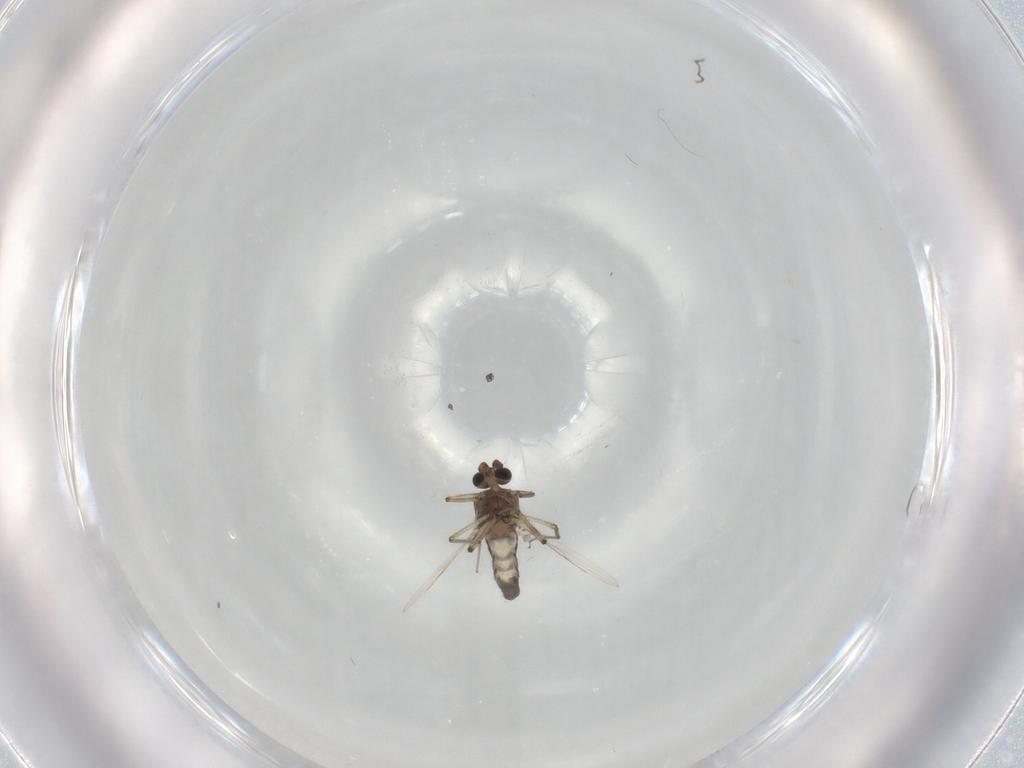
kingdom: Animalia
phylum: Arthropoda
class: Insecta
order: Diptera
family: Ceratopogonidae
